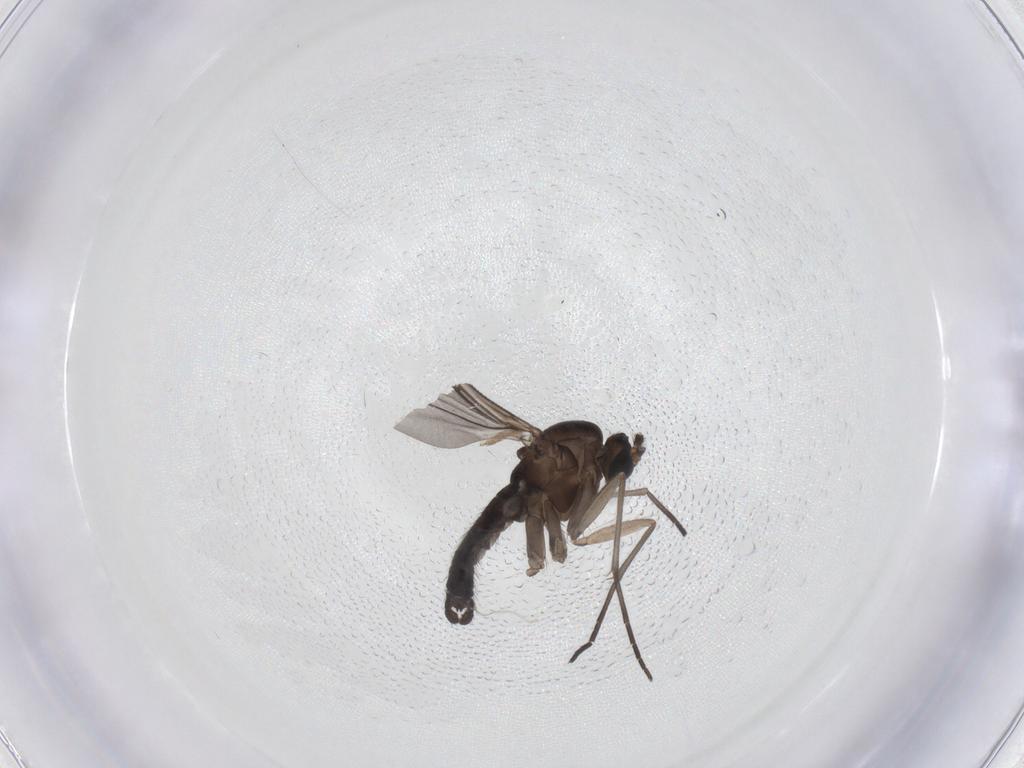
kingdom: Animalia
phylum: Arthropoda
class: Insecta
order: Diptera
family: Sciaridae
